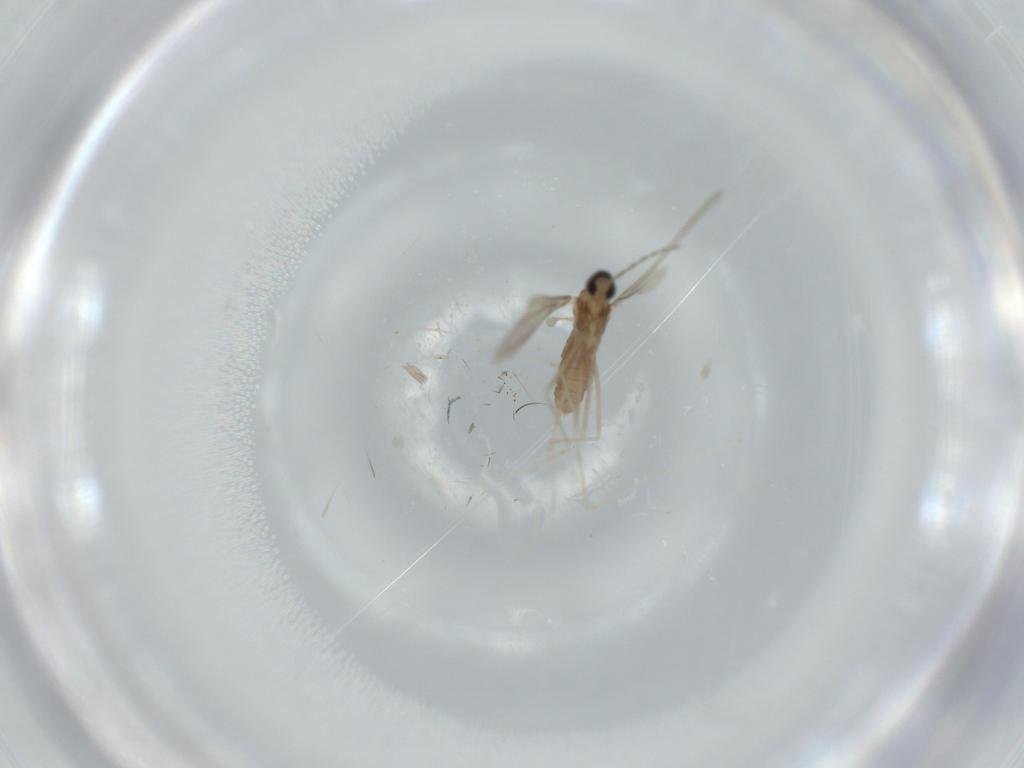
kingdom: Animalia
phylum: Arthropoda
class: Insecta
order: Diptera
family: Cecidomyiidae
